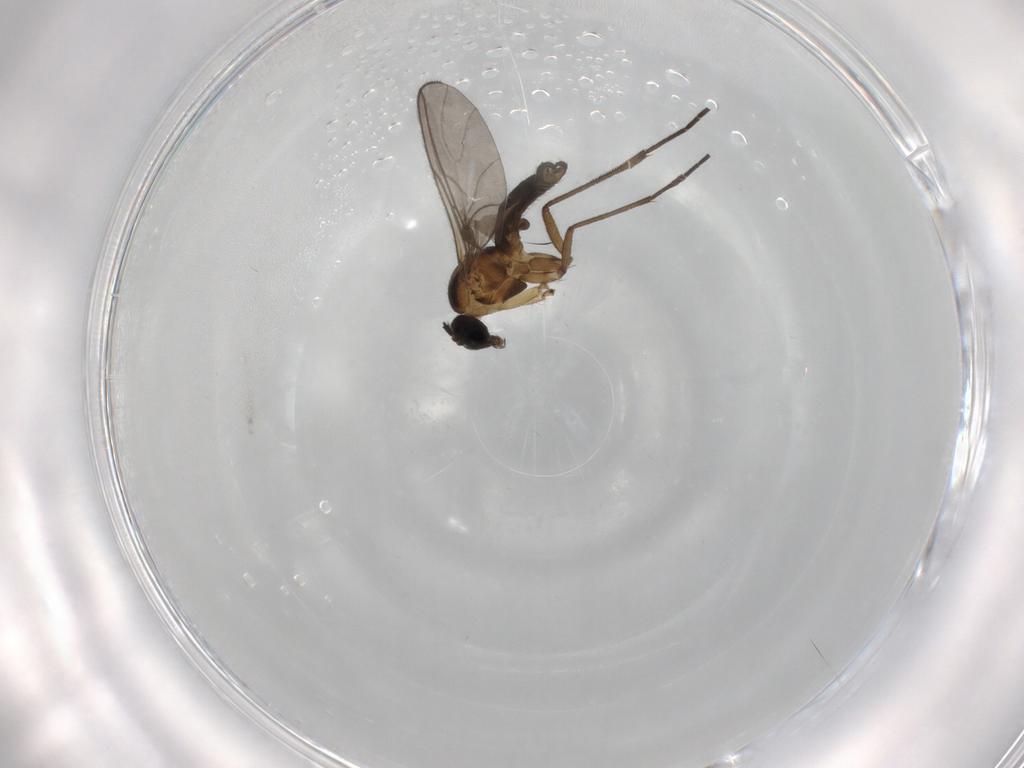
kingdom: Animalia
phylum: Arthropoda
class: Insecta
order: Diptera
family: Sciaridae
